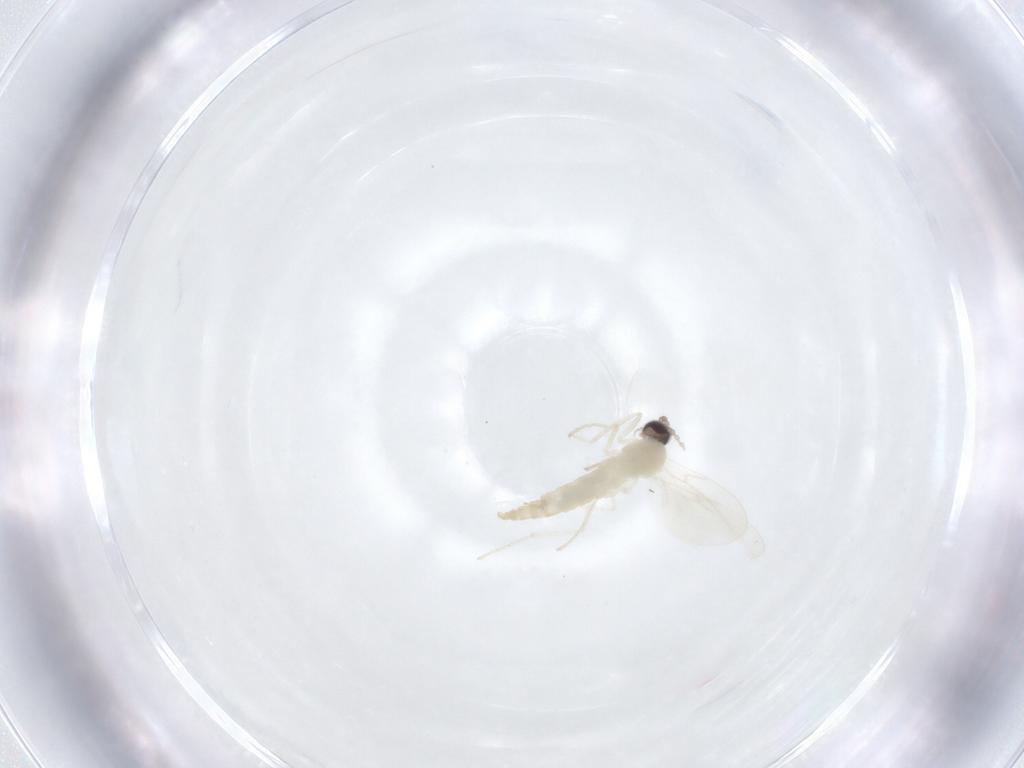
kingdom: Animalia
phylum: Arthropoda
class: Insecta
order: Diptera
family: Cecidomyiidae
